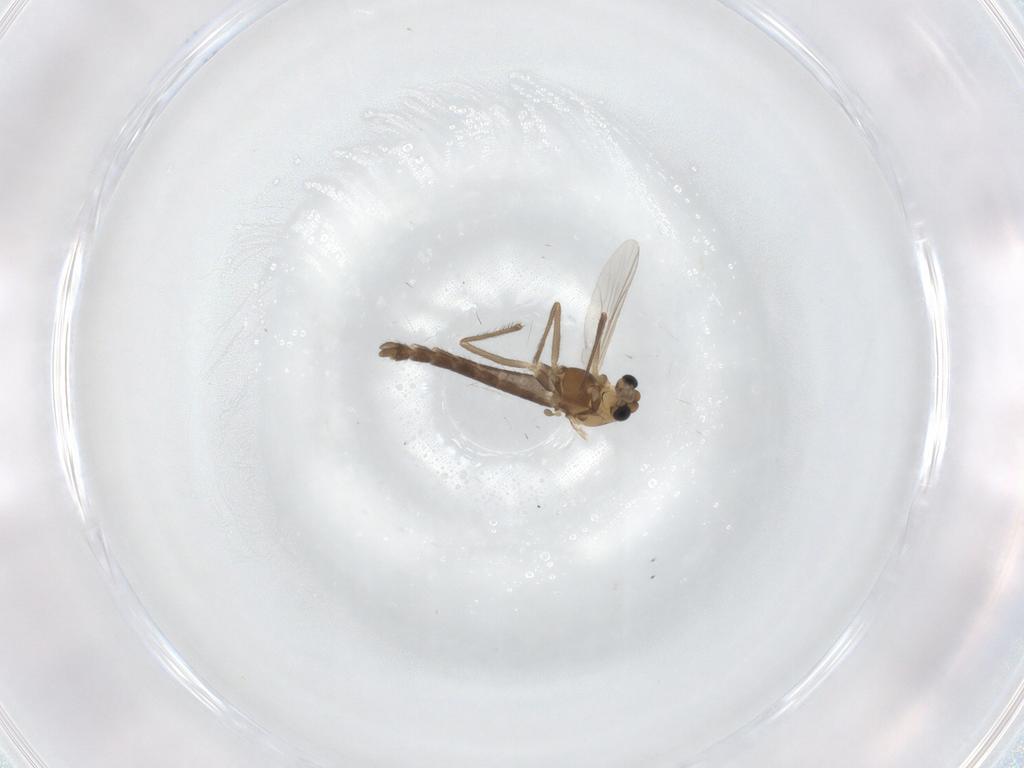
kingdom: Animalia
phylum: Arthropoda
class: Insecta
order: Diptera
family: Chironomidae
